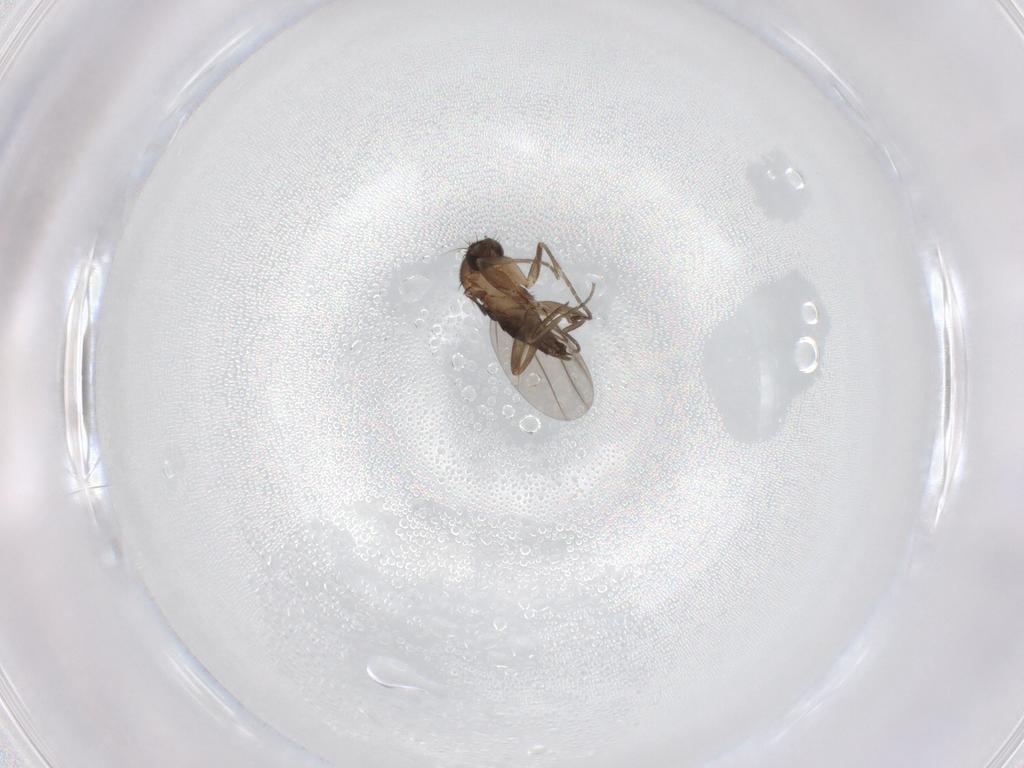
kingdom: Animalia
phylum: Arthropoda
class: Insecta
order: Diptera
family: Phoridae
